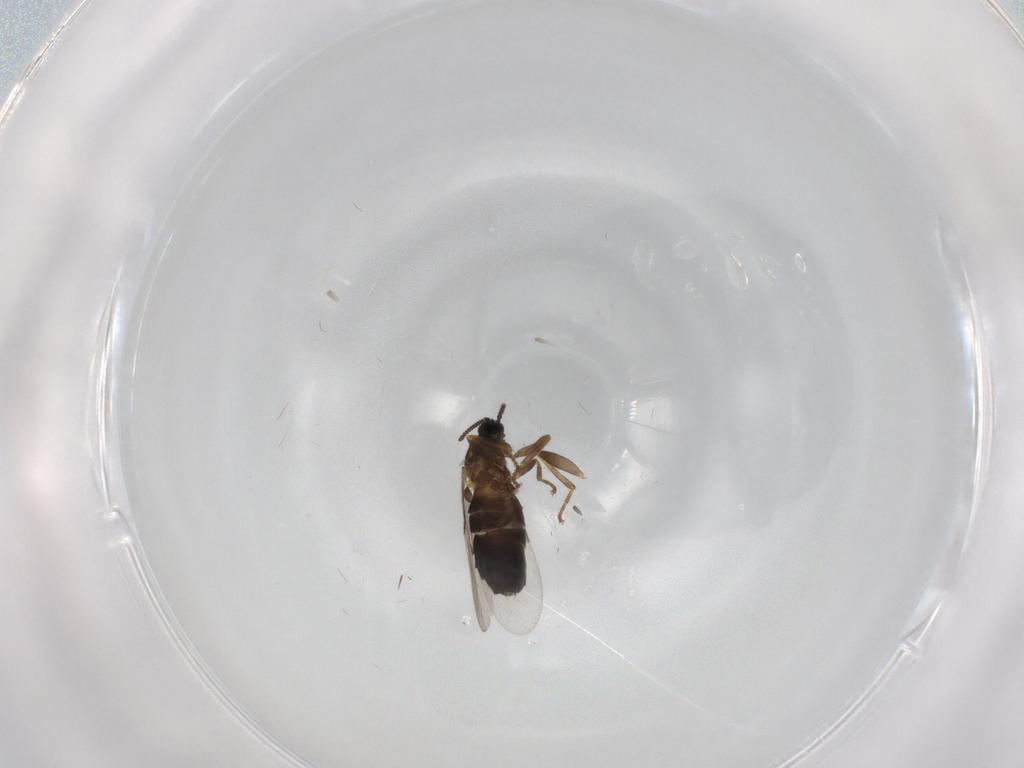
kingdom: Animalia
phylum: Arthropoda
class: Insecta
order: Diptera
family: Scatopsidae
